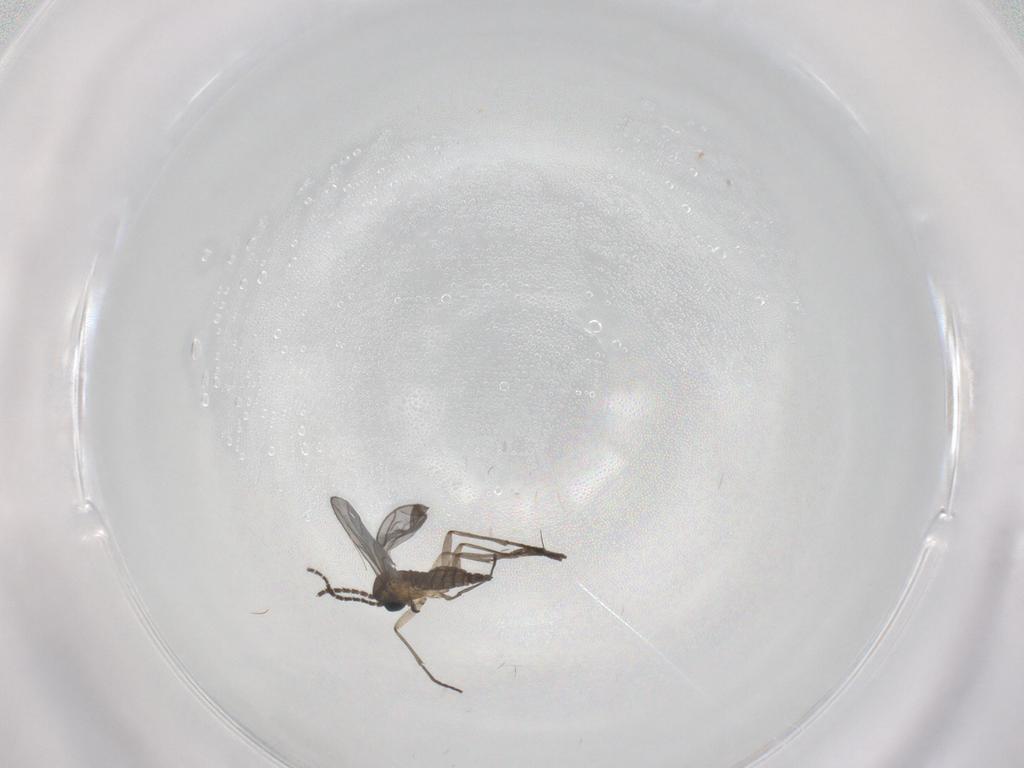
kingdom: Animalia
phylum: Arthropoda
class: Insecta
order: Diptera
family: Sciaridae
